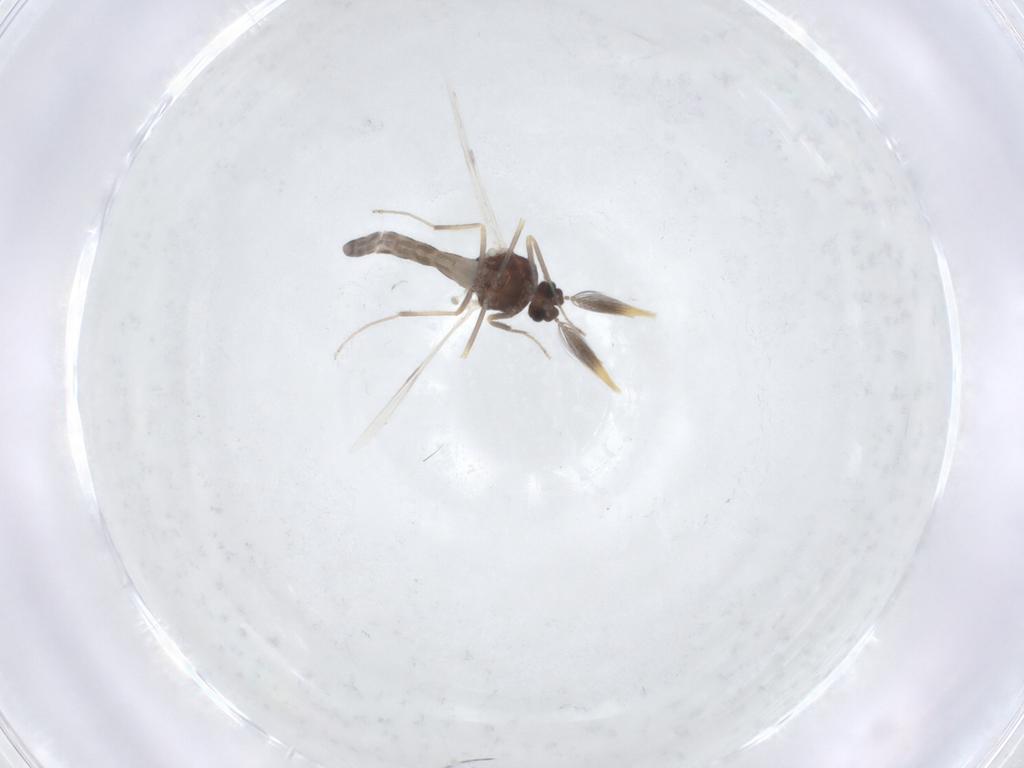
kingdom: Animalia
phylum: Arthropoda
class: Insecta
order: Diptera
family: Ceratopogonidae
